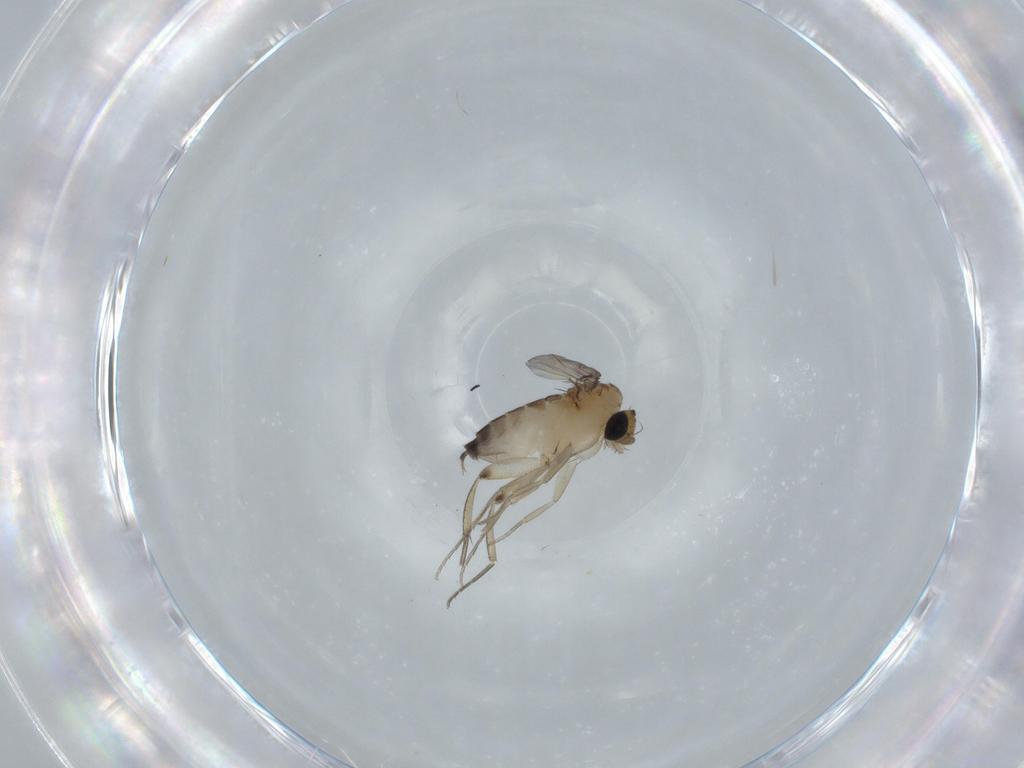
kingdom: Animalia
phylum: Arthropoda
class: Insecta
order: Diptera
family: Phoridae
